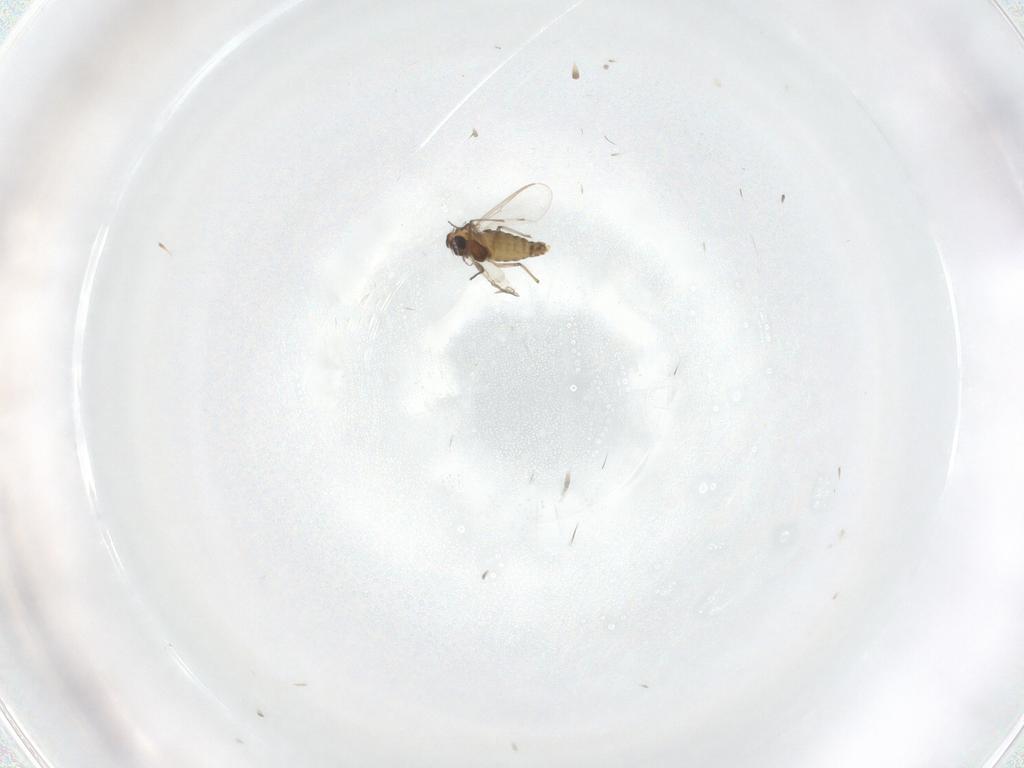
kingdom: Animalia
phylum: Arthropoda
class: Insecta
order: Diptera
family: Chironomidae
